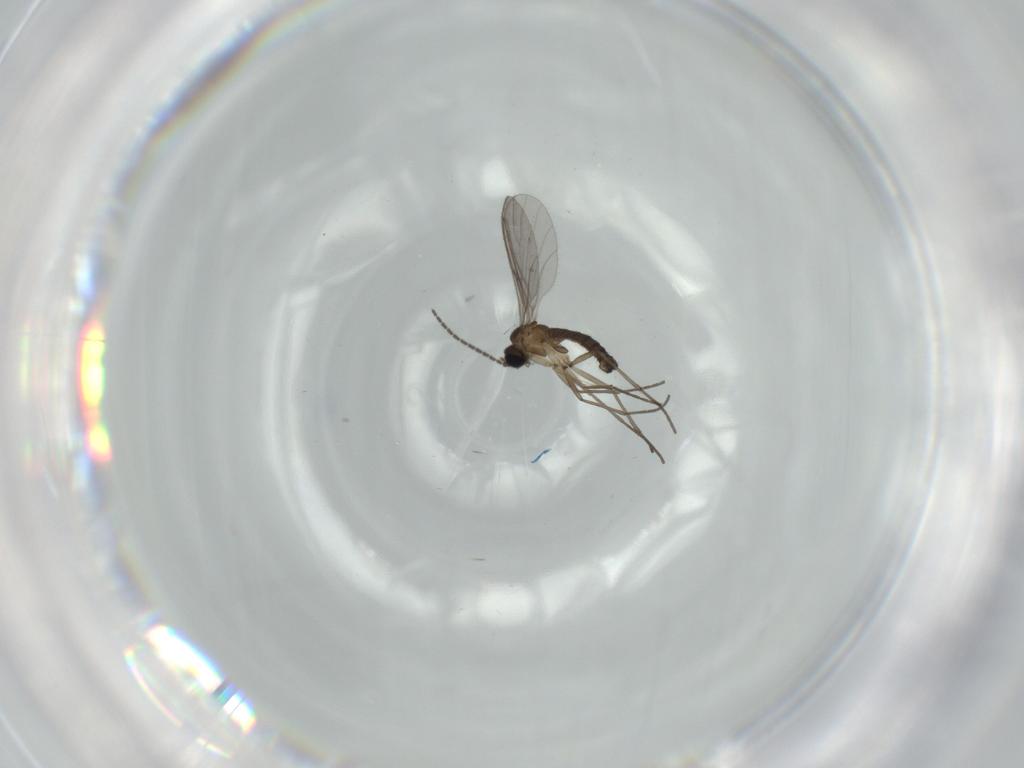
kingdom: Animalia
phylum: Arthropoda
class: Insecta
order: Diptera
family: Sciaridae
